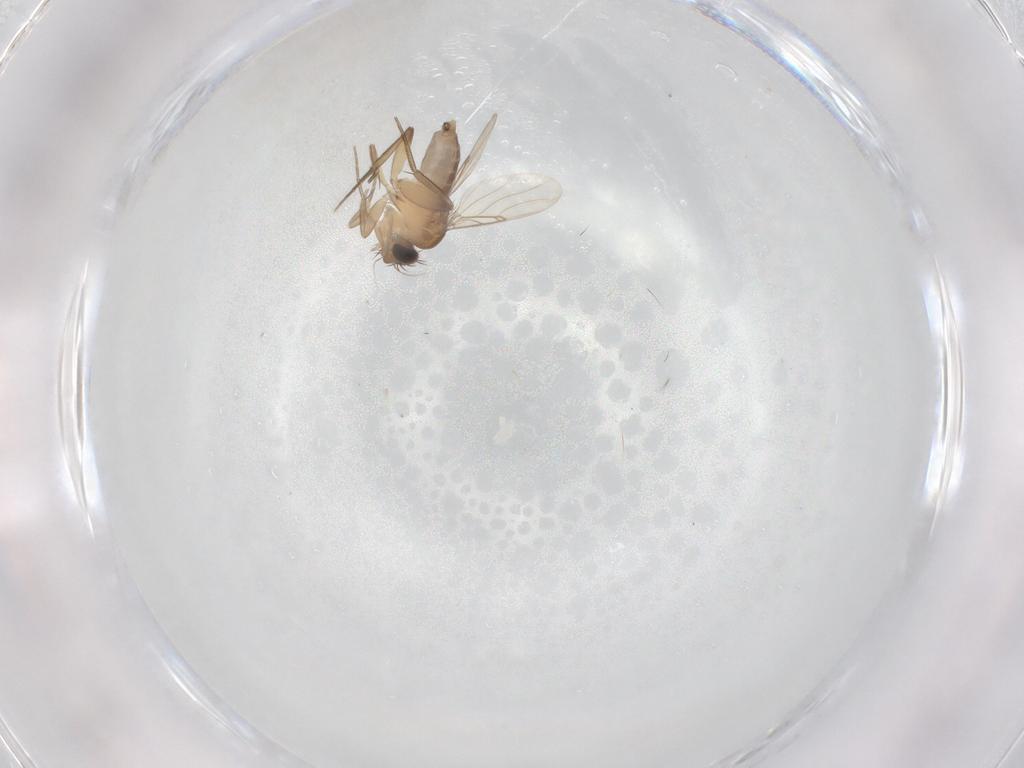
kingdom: Animalia
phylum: Arthropoda
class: Insecta
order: Diptera
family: Phoridae
